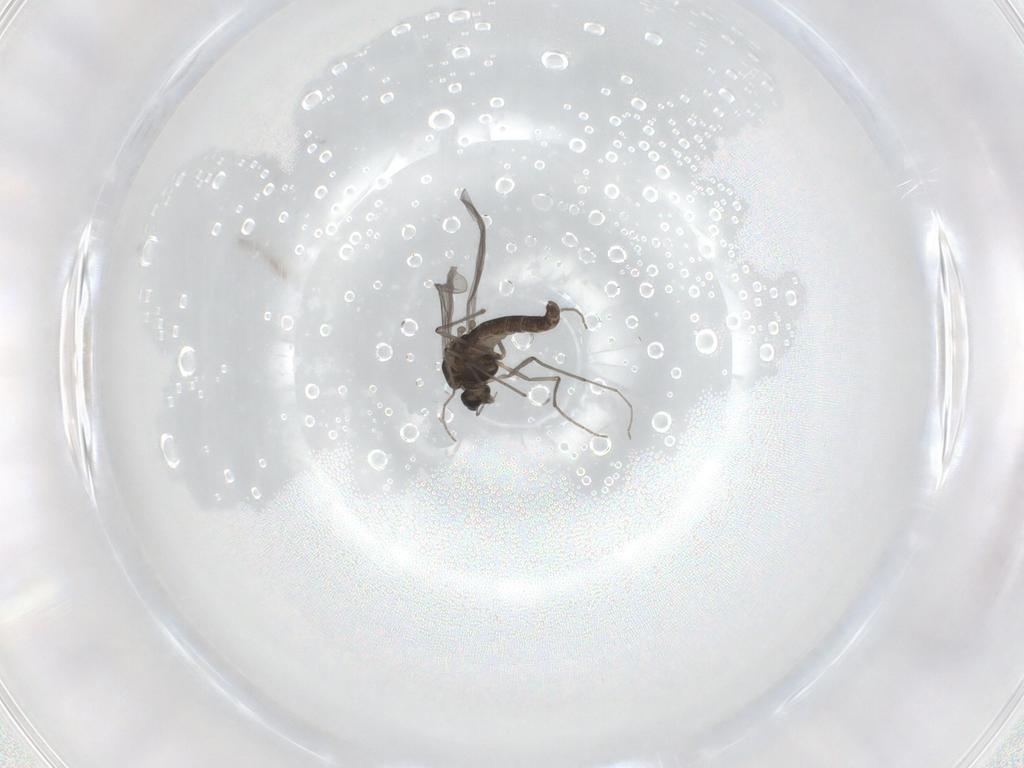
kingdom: Animalia
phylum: Arthropoda
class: Insecta
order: Diptera
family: Chironomidae
